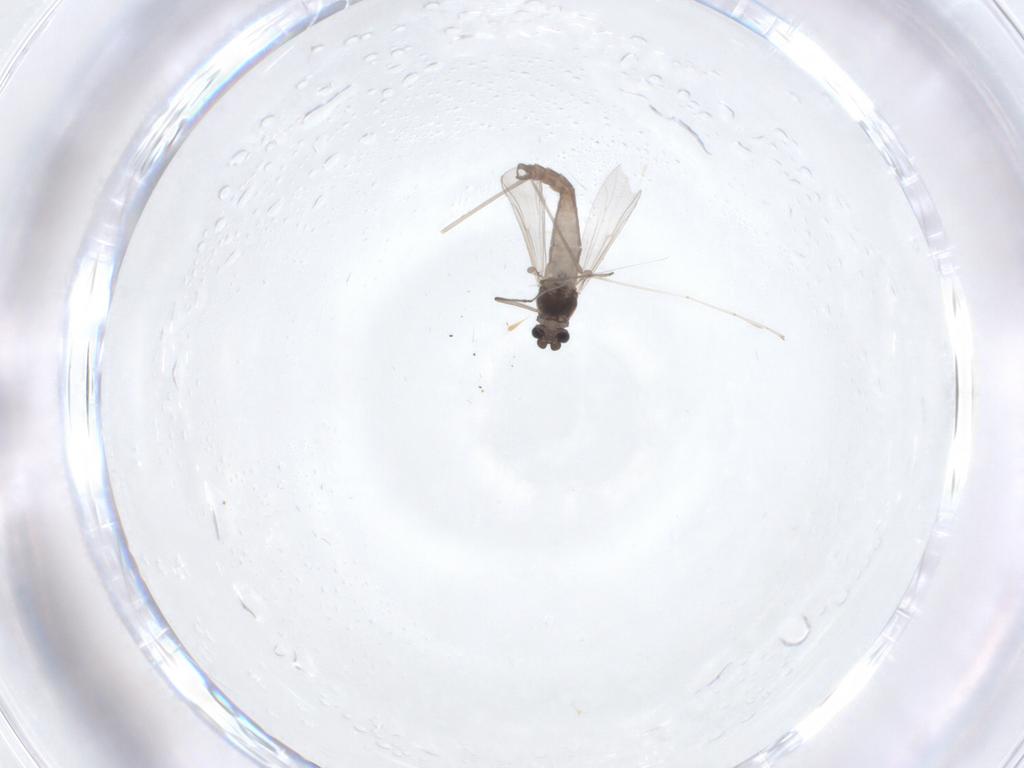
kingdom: Animalia
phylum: Arthropoda
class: Insecta
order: Diptera
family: Chironomidae
